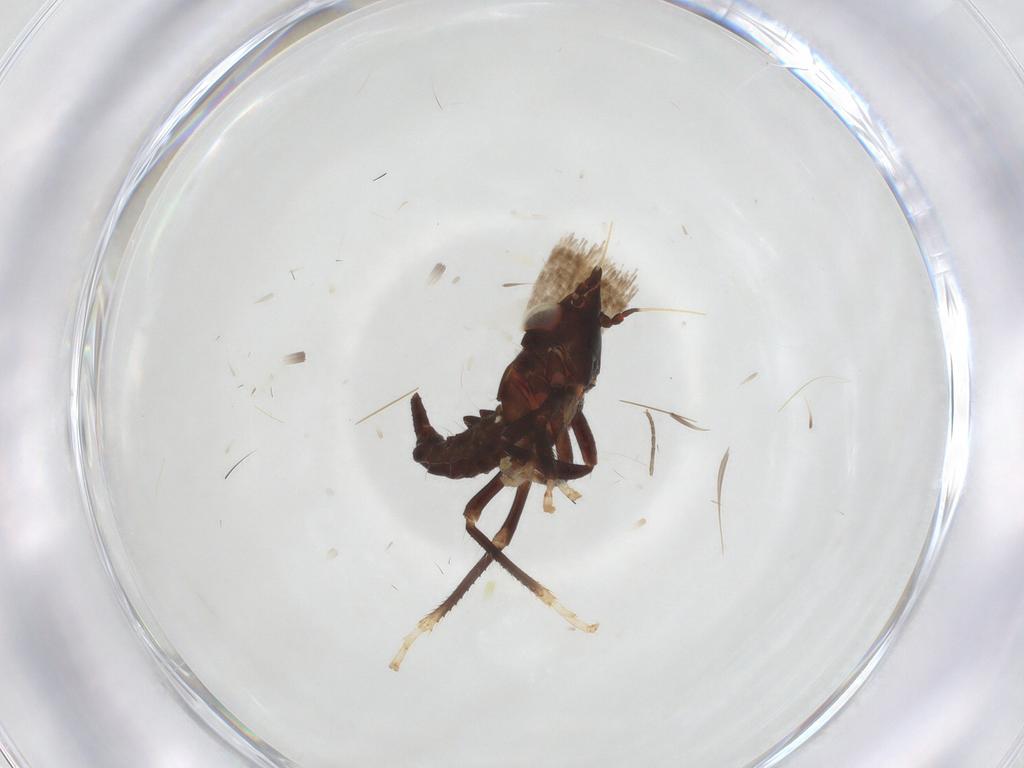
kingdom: Animalia
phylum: Arthropoda
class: Insecta
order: Hemiptera
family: Cicadellidae
